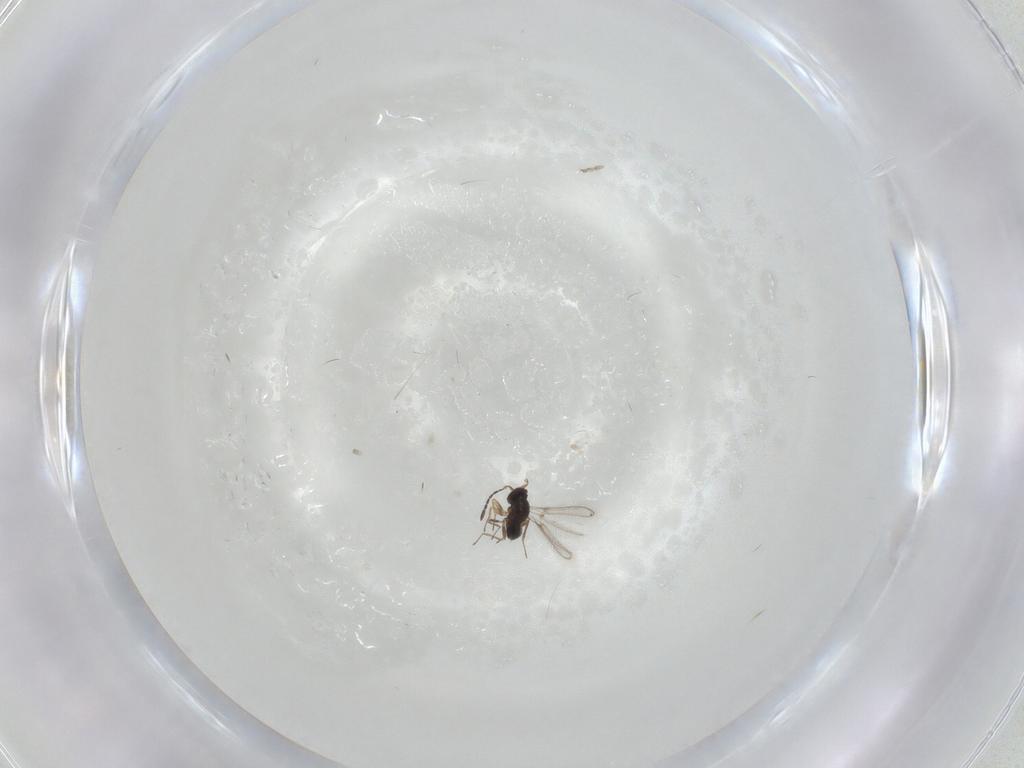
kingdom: Animalia
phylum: Arthropoda
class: Insecta
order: Hymenoptera
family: Mymaridae
